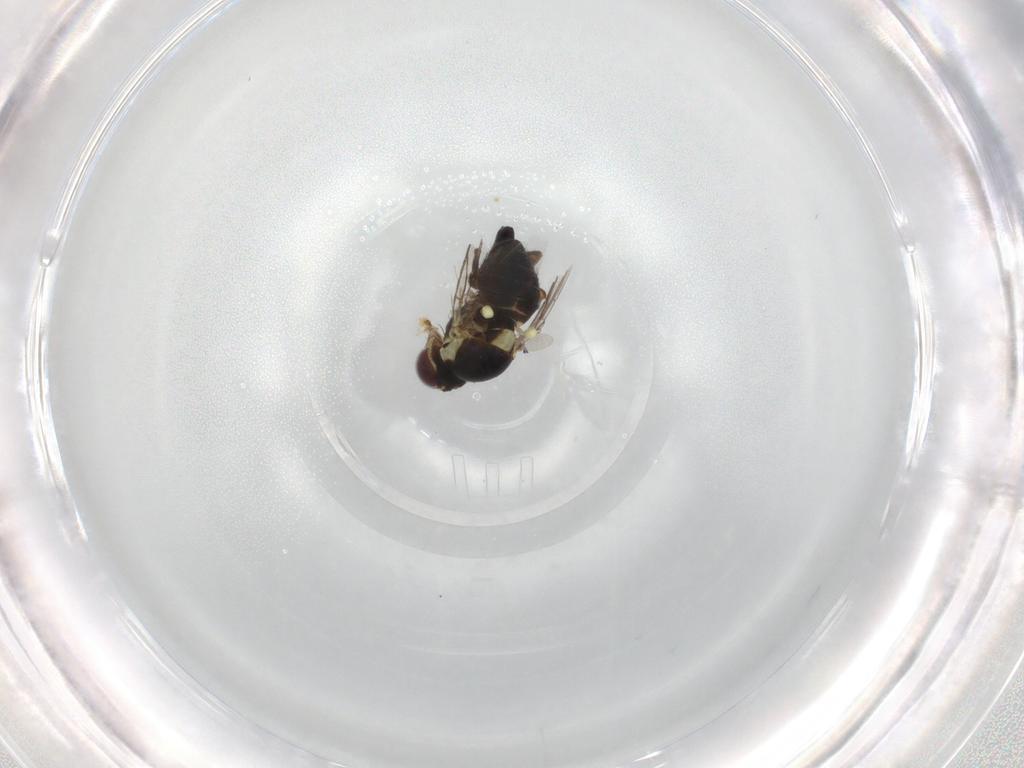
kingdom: Animalia
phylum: Arthropoda
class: Insecta
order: Diptera
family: Agromyzidae
